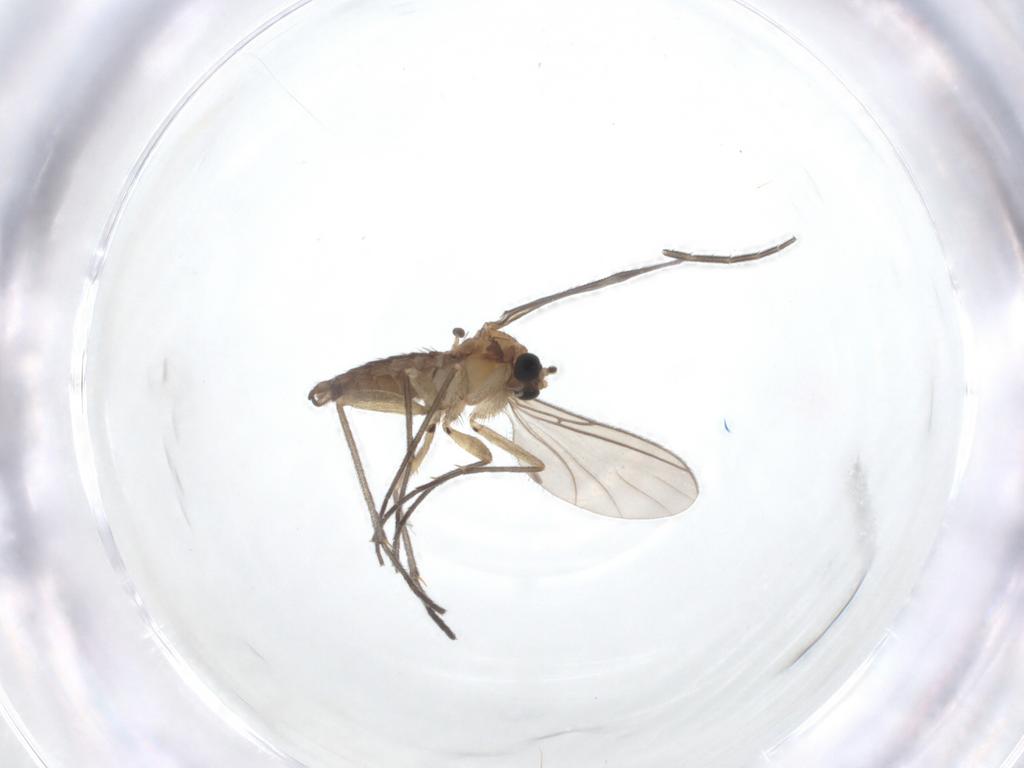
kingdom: Animalia
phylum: Arthropoda
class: Insecta
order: Diptera
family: Sciaridae
